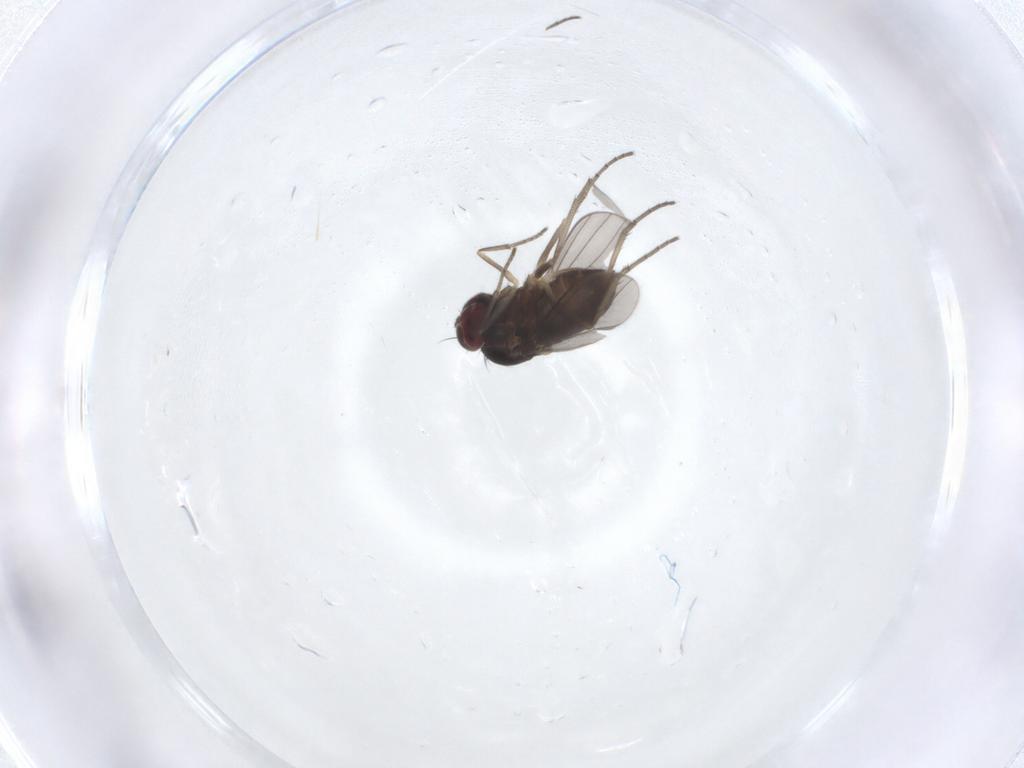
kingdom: Animalia
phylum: Arthropoda
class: Insecta
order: Diptera
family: Dolichopodidae
